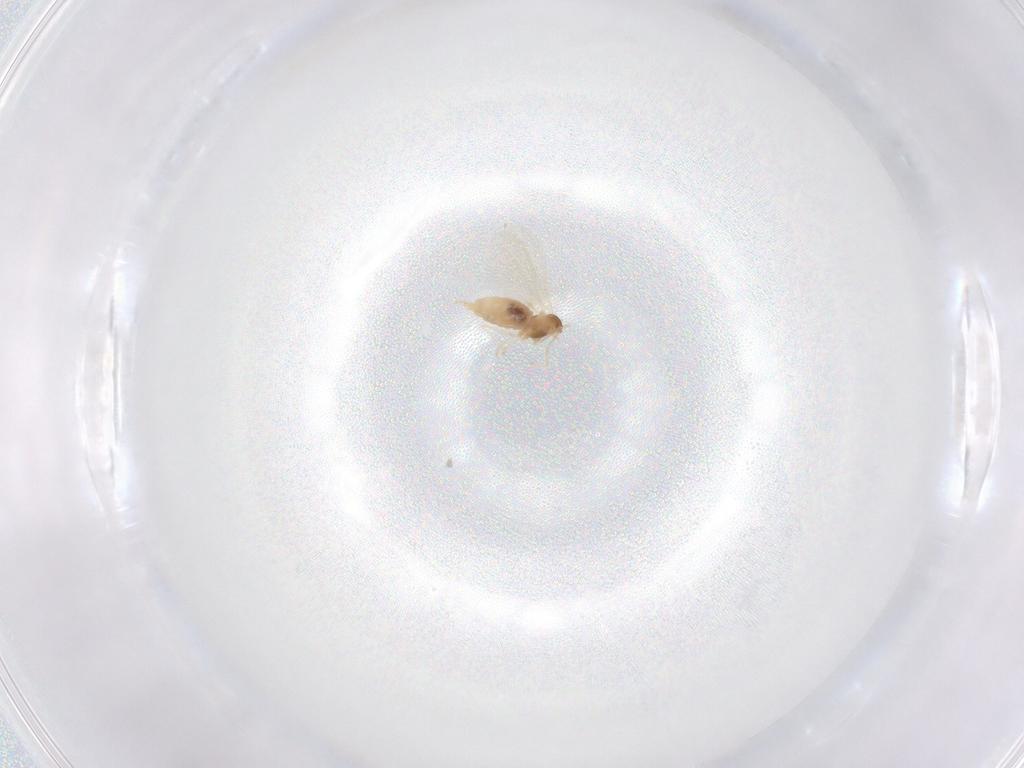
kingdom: Animalia
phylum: Arthropoda
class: Insecta
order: Diptera
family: Cecidomyiidae
